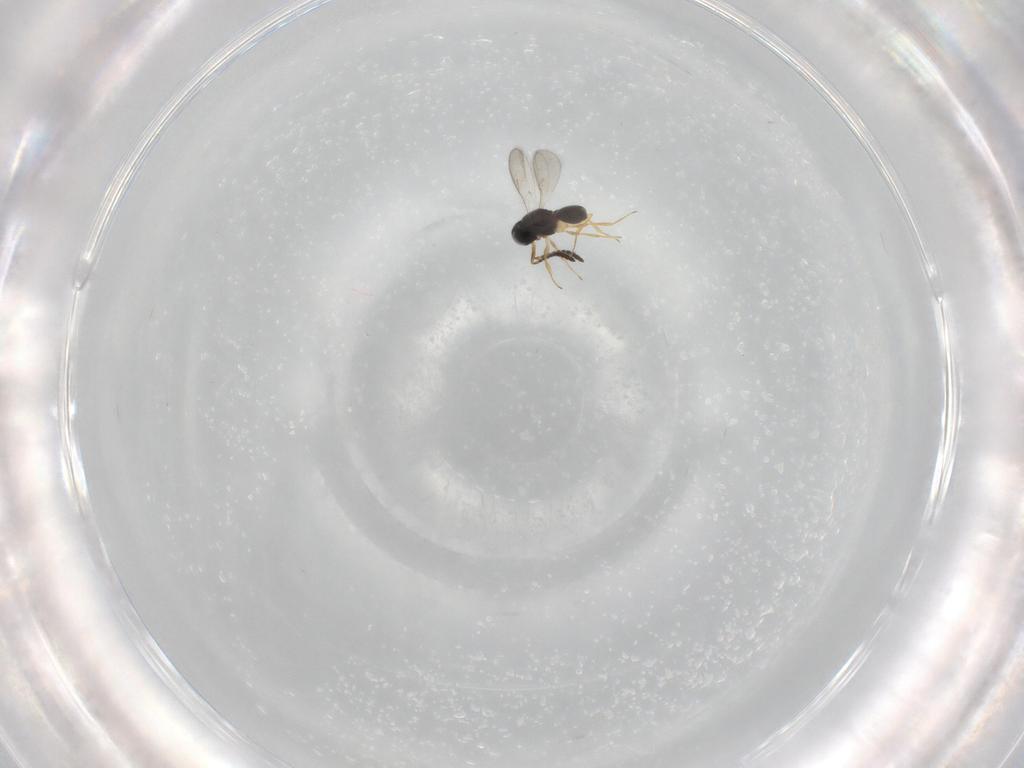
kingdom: Animalia
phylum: Arthropoda
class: Insecta
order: Hymenoptera
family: Scelionidae
